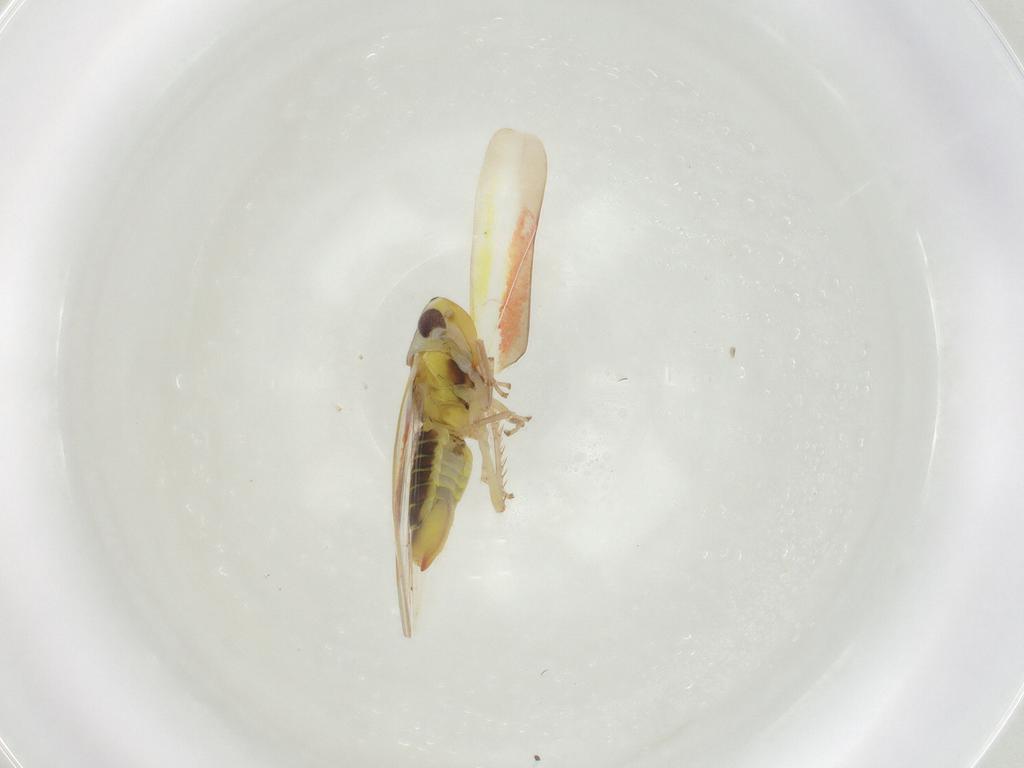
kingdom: Animalia
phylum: Arthropoda
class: Insecta
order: Hemiptera
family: Cicadellidae
